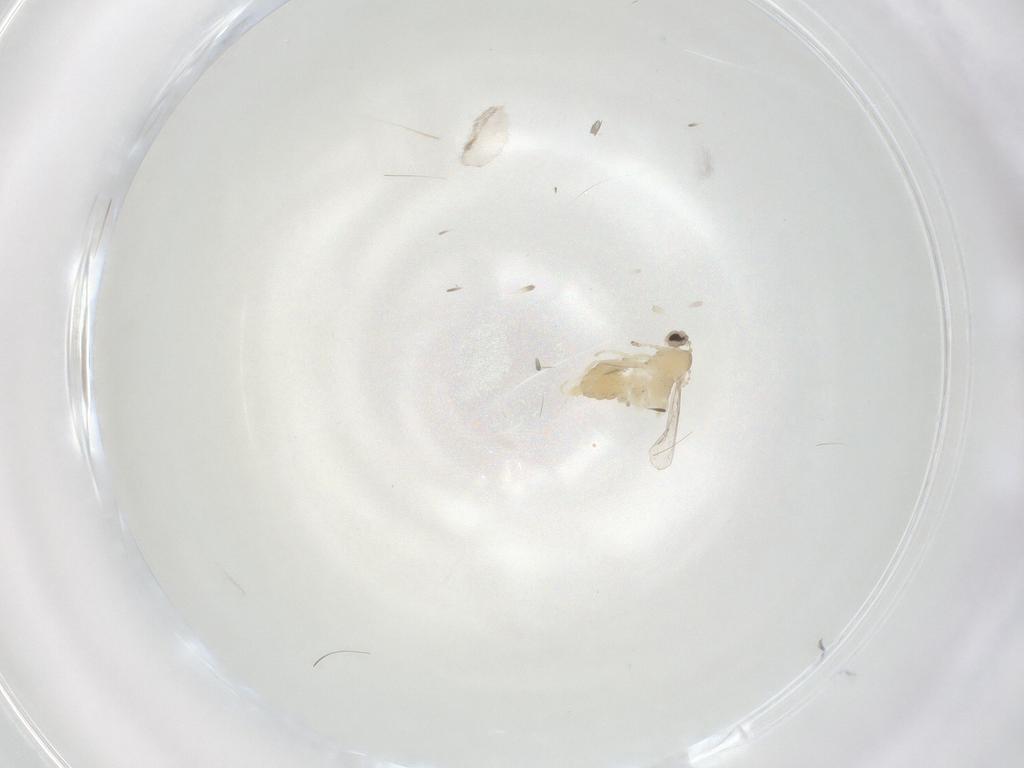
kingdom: Animalia
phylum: Arthropoda
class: Insecta
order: Diptera
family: Cecidomyiidae
